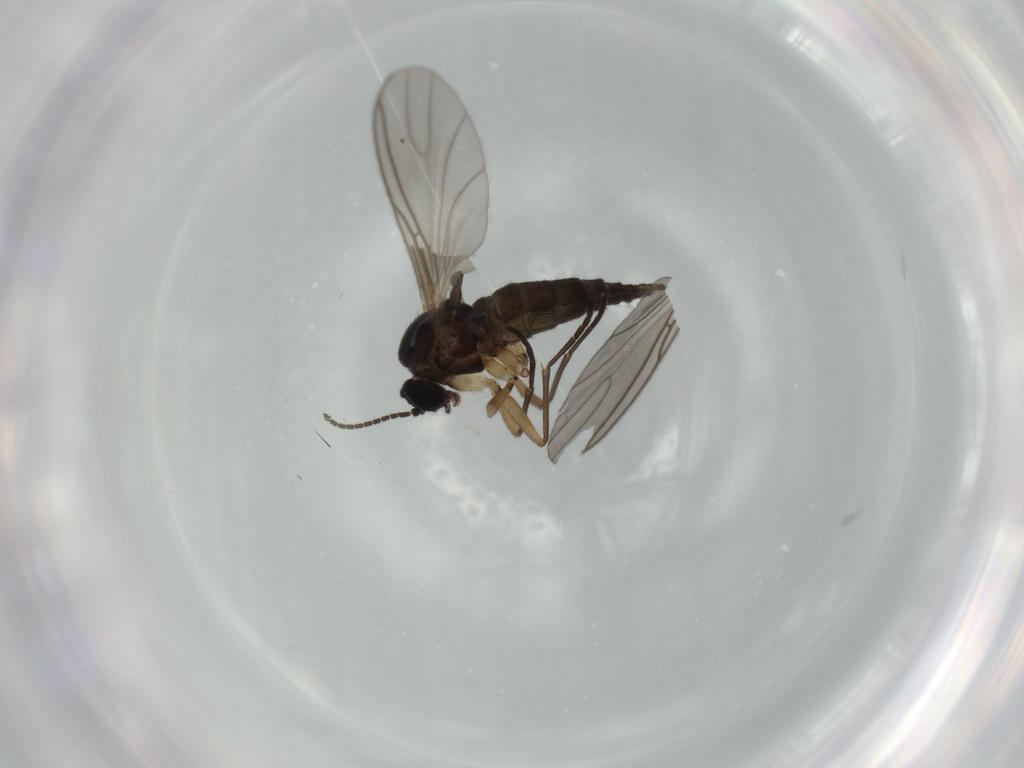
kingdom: Animalia
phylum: Arthropoda
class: Insecta
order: Diptera
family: Sciaridae
